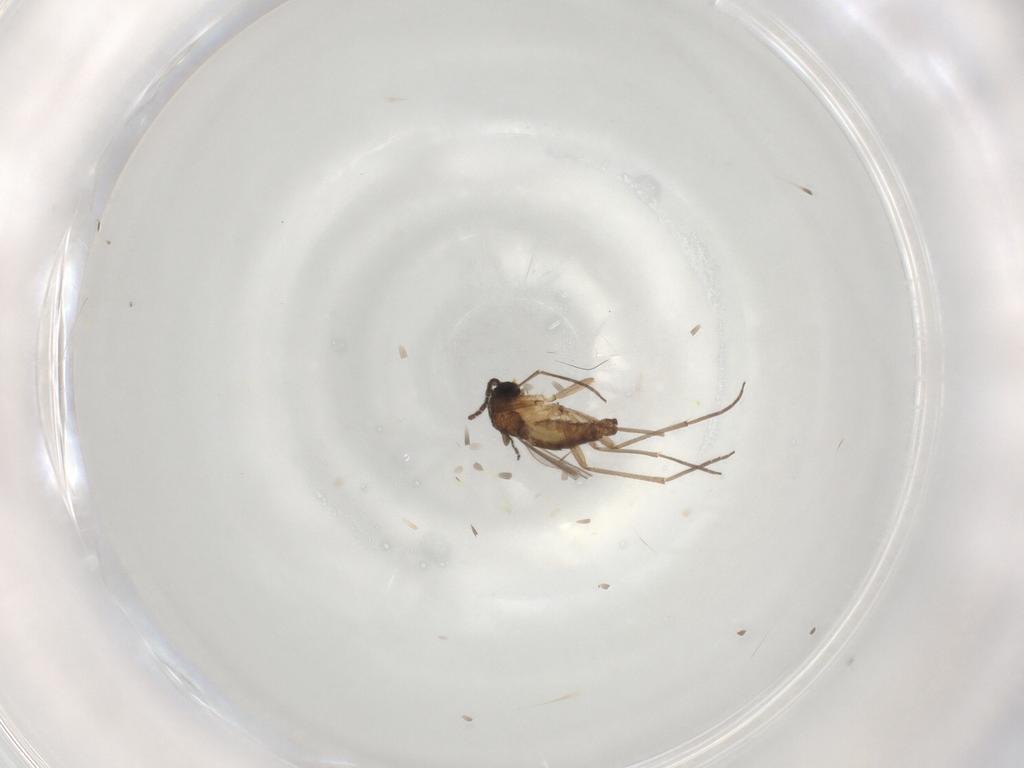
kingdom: Animalia
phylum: Arthropoda
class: Insecta
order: Diptera
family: Sciaridae
